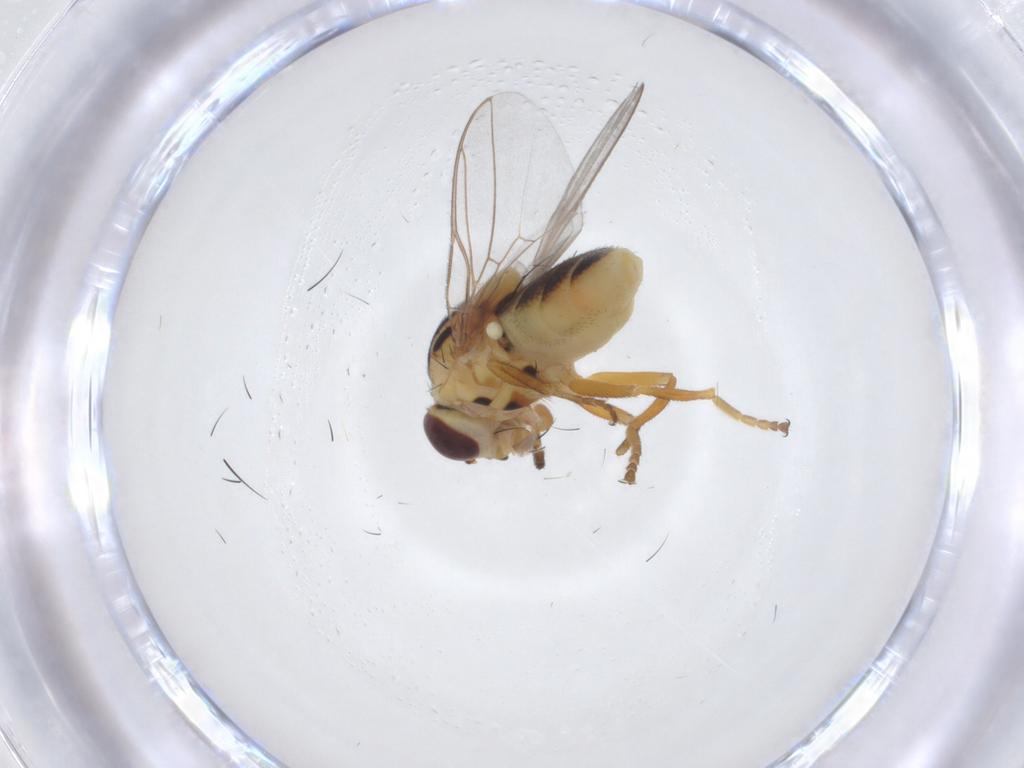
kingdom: Animalia
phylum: Arthropoda
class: Insecta
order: Diptera
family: Chloropidae
